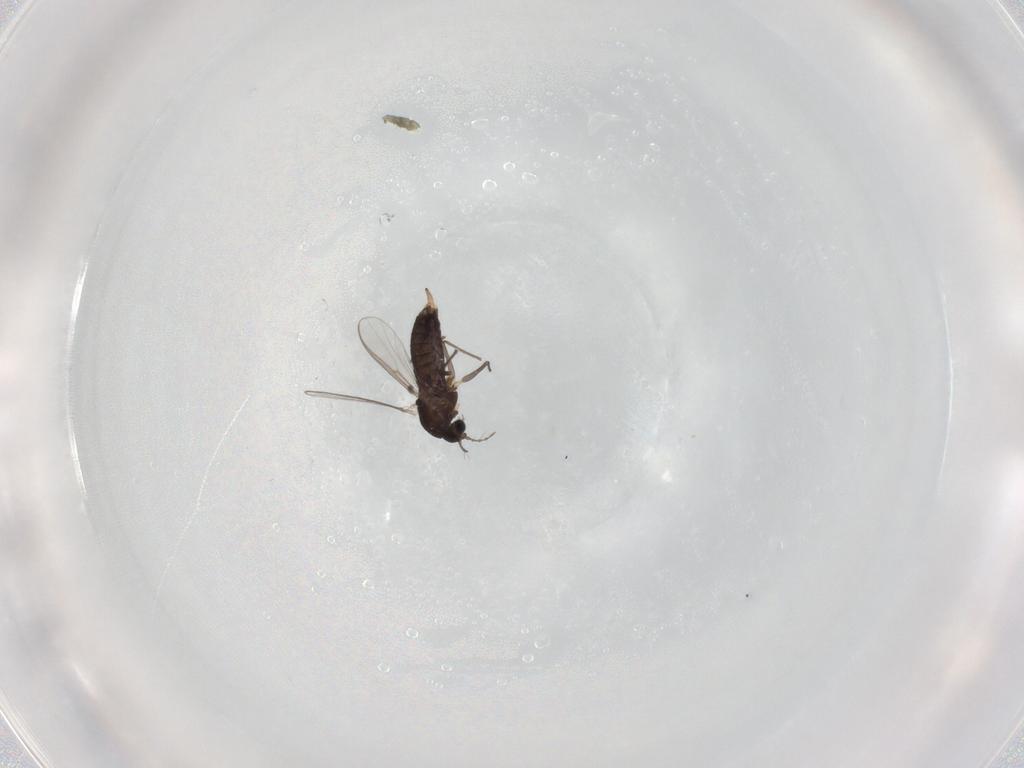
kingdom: Animalia
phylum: Arthropoda
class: Insecta
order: Diptera
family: Chironomidae
